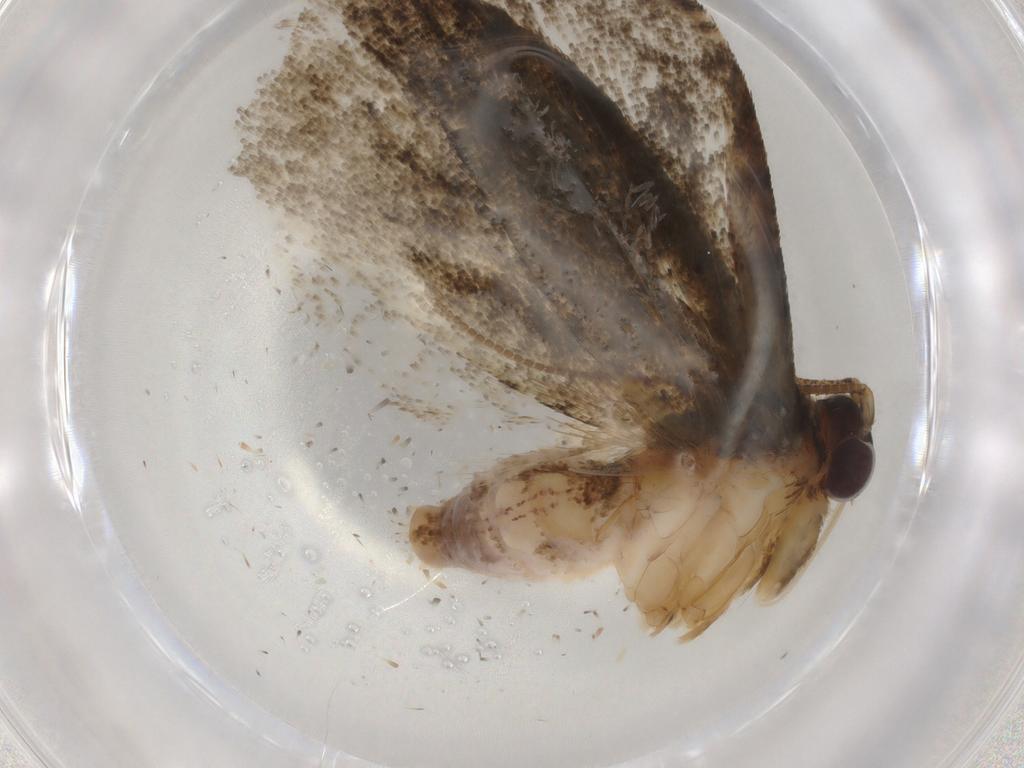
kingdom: Animalia
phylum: Arthropoda
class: Insecta
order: Lepidoptera
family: Tortricidae
